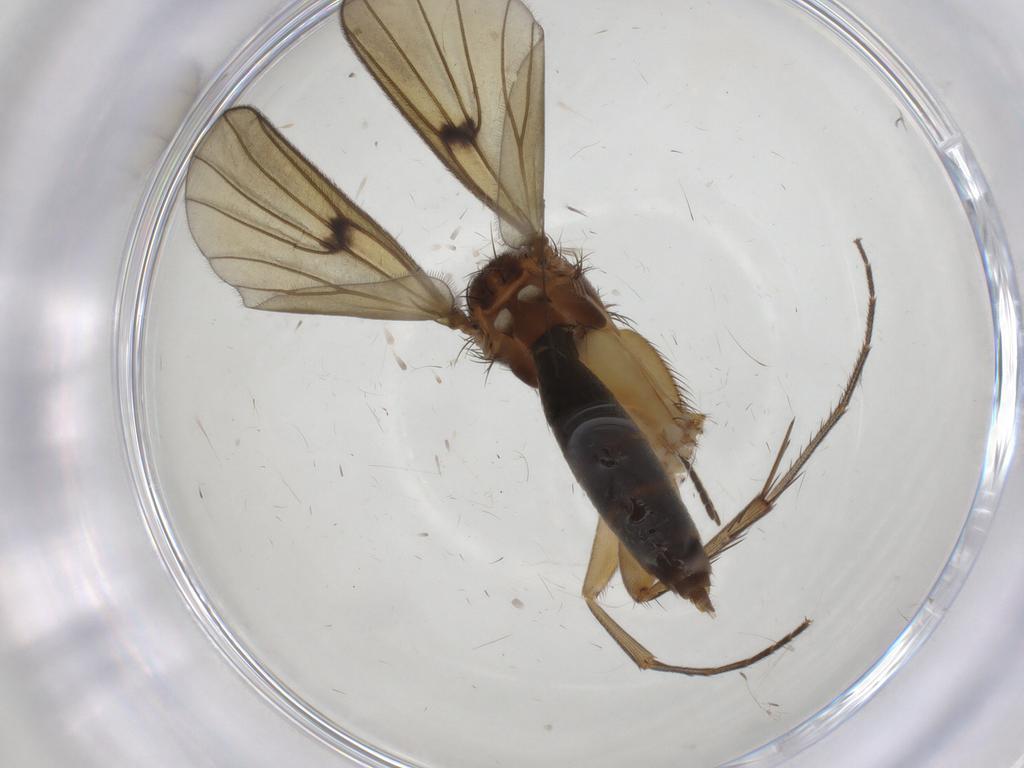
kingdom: Animalia
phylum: Arthropoda
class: Insecta
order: Diptera
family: Mycetophilidae
